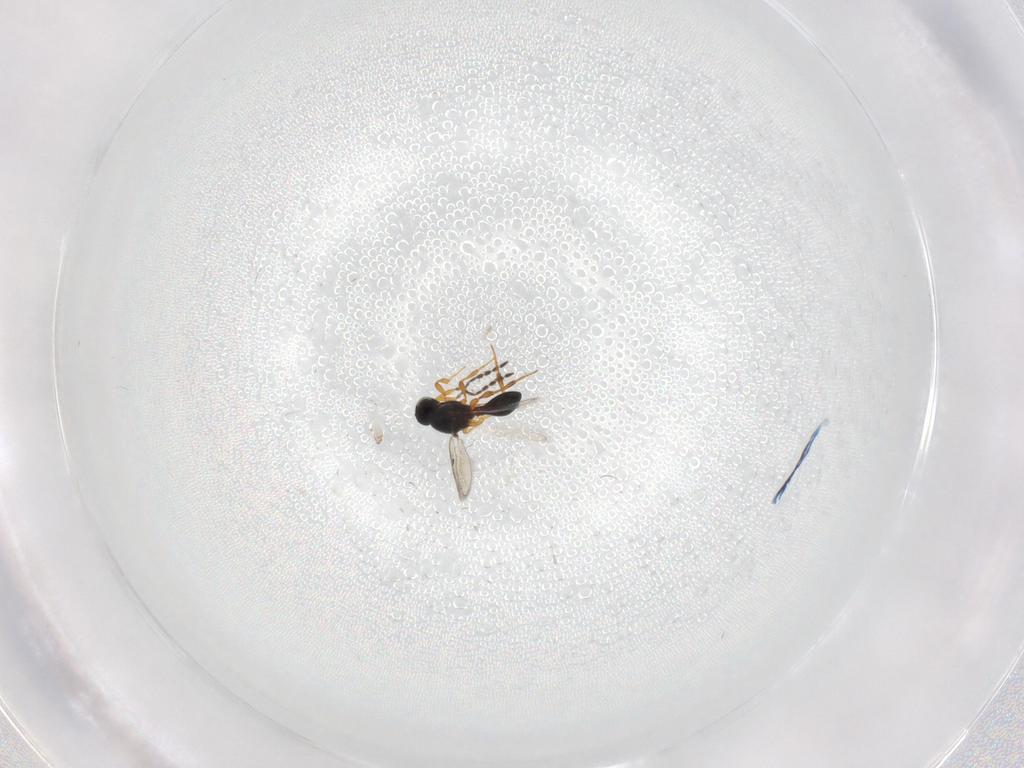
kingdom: Animalia
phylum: Arthropoda
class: Insecta
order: Hymenoptera
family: Platygastridae
